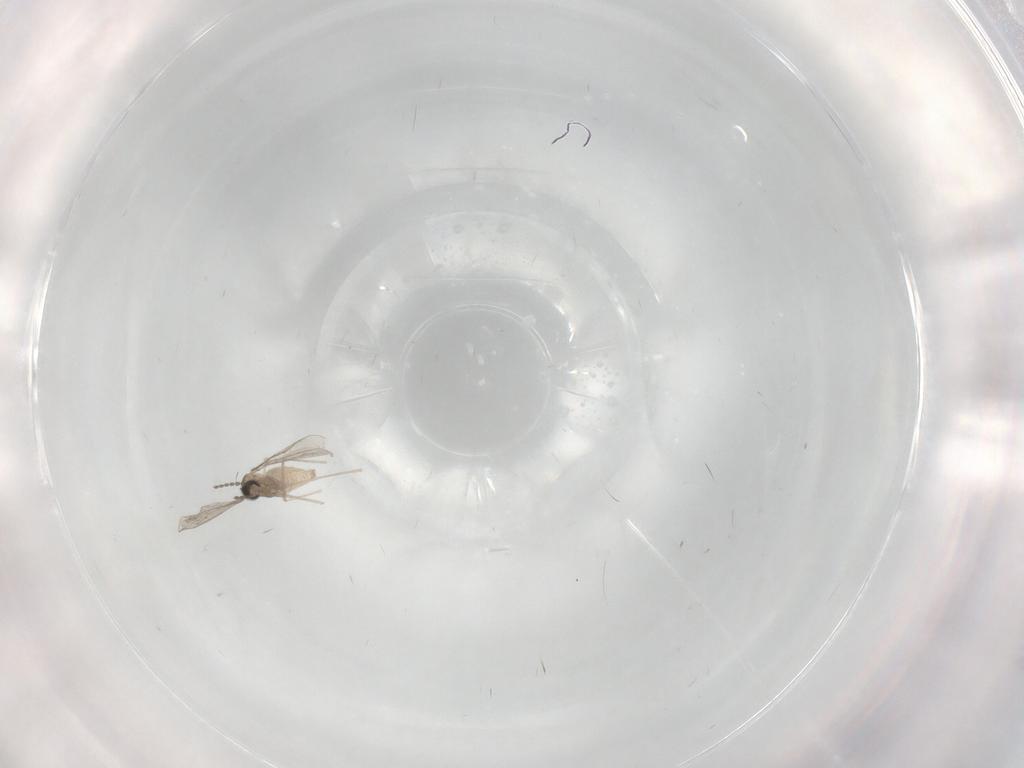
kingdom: Animalia
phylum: Arthropoda
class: Insecta
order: Diptera
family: Cecidomyiidae
